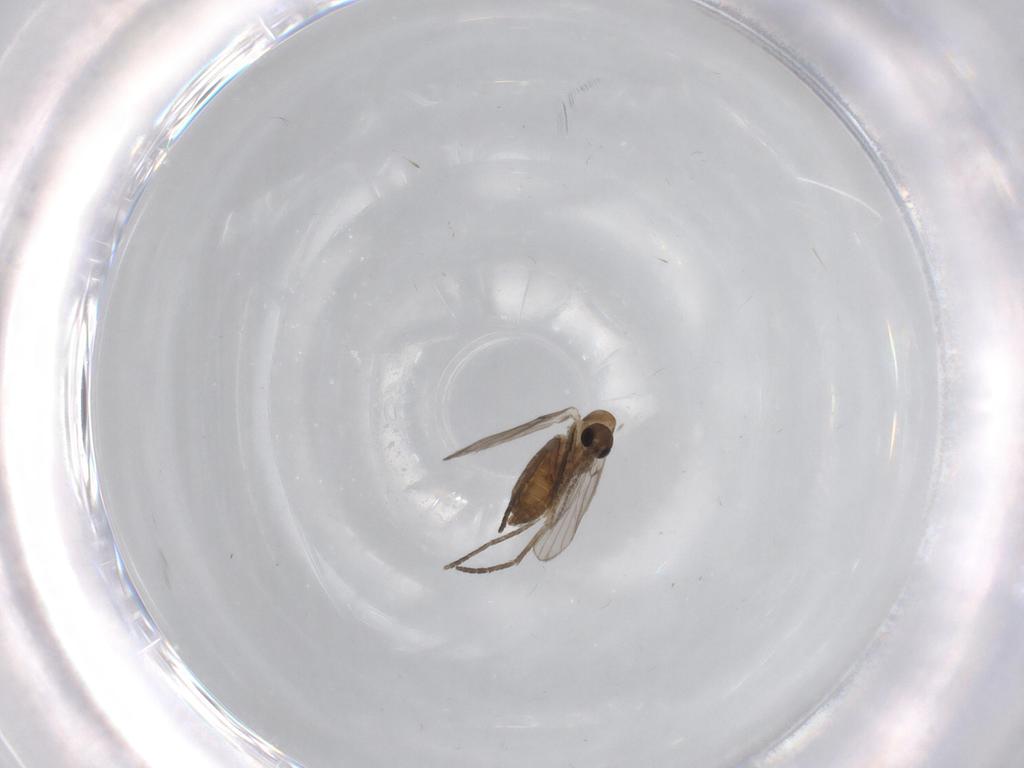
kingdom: Animalia
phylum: Arthropoda
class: Insecta
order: Diptera
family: Psychodidae
